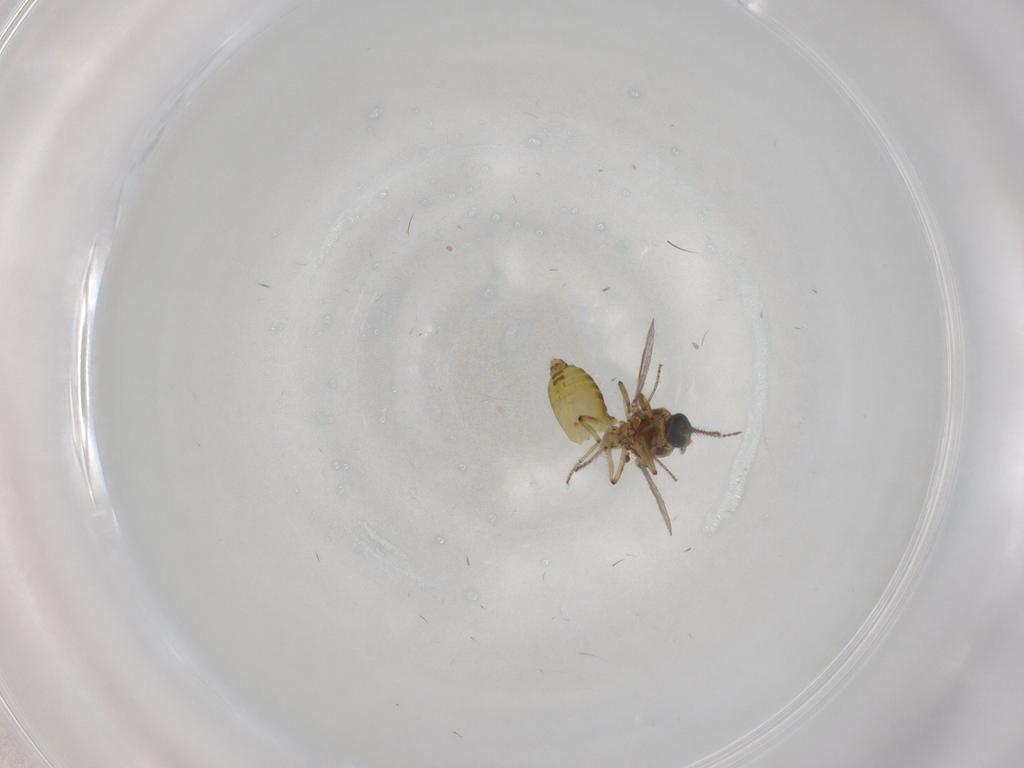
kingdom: Animalia
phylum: Arthropoda
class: Insecta
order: Diptera
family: Ceratopogonidae
